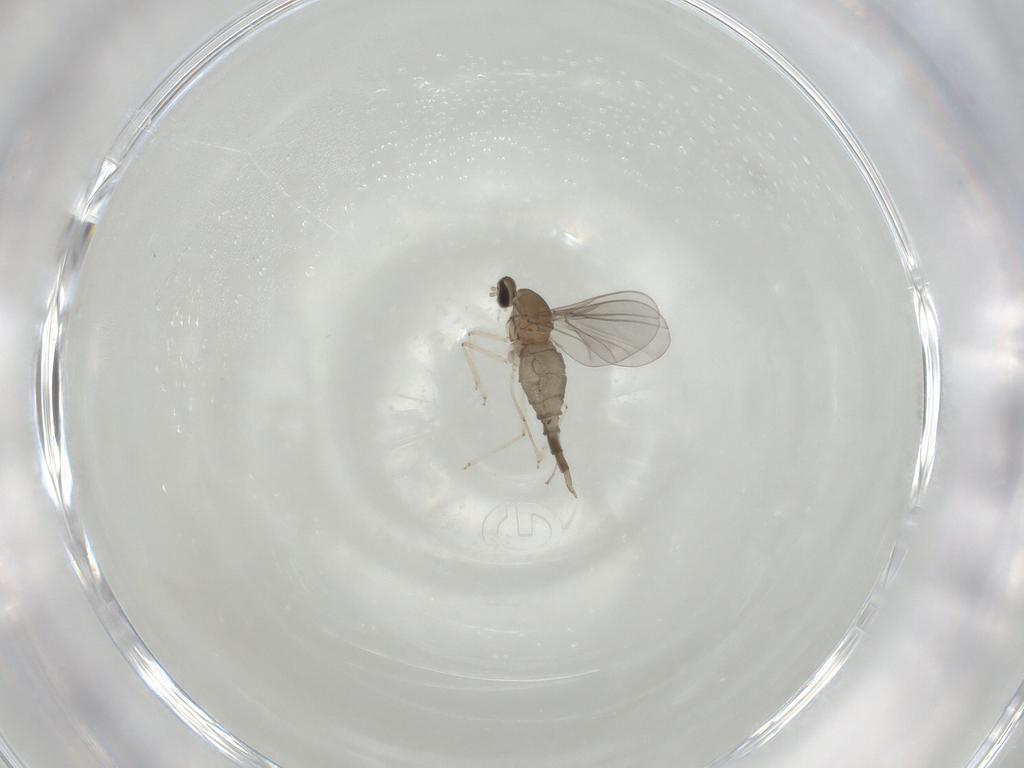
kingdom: Animalia
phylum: Arthropoda
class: Insecta
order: Diptera
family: Cecidomyiidae
